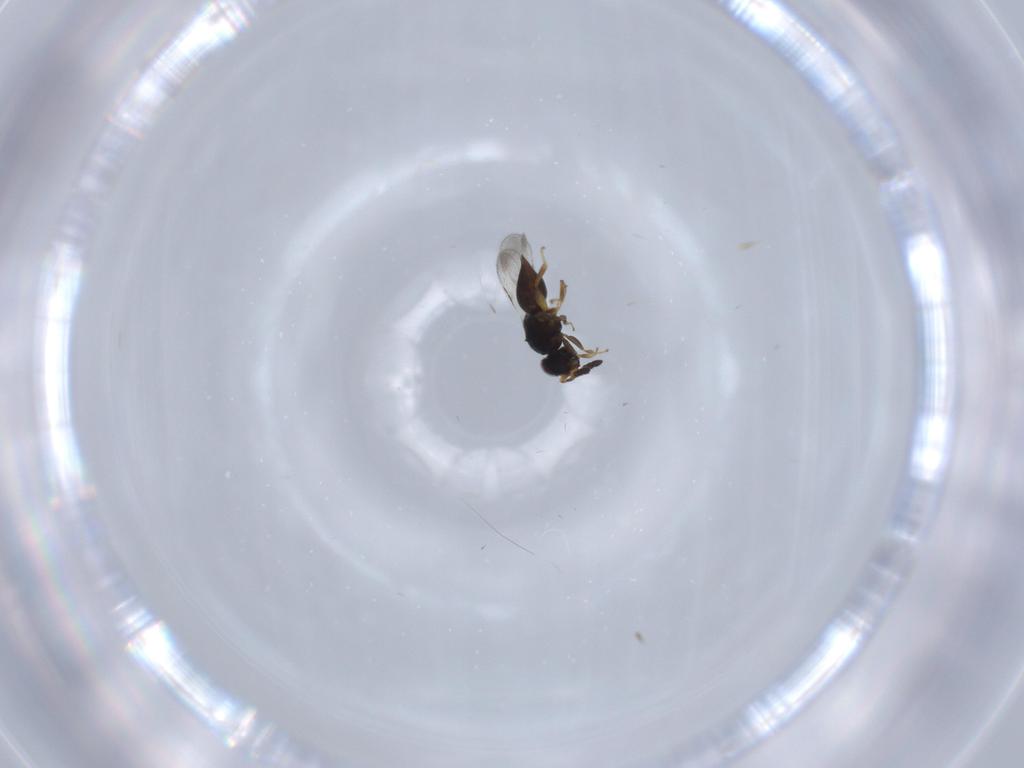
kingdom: Animalia
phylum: Arthropoda
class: Insecta
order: Hymenoptera
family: Ceraphronidae
